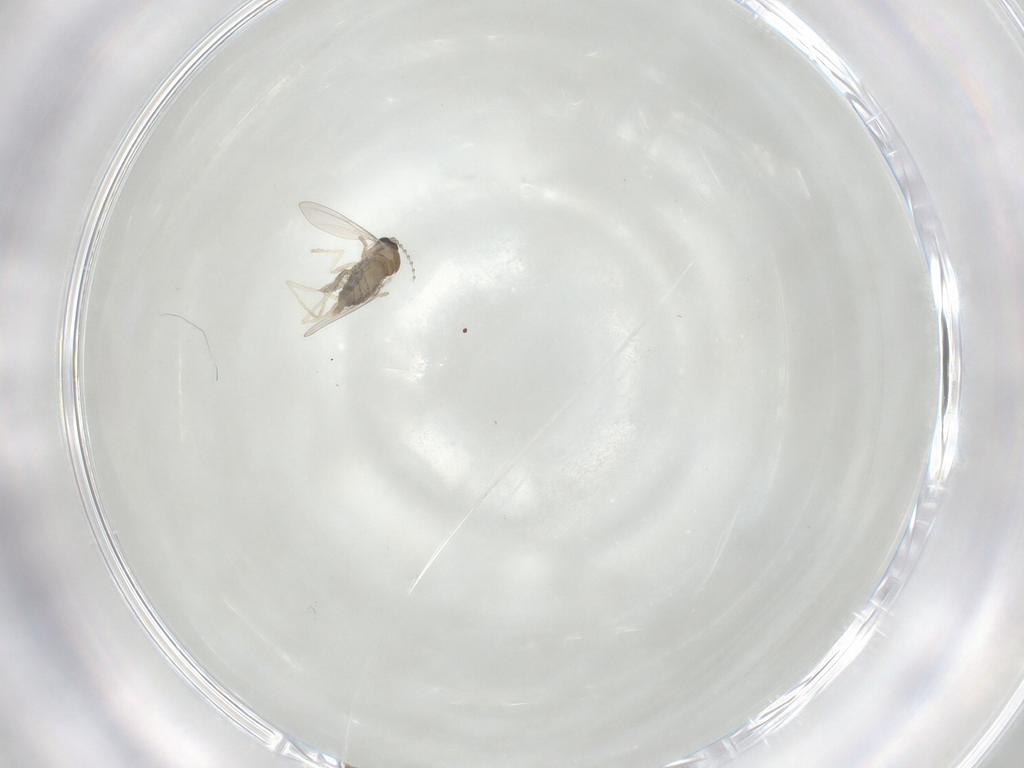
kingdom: Animalia
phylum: Arthropoda
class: Insecta
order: Diptera
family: Cecidomyiidae
